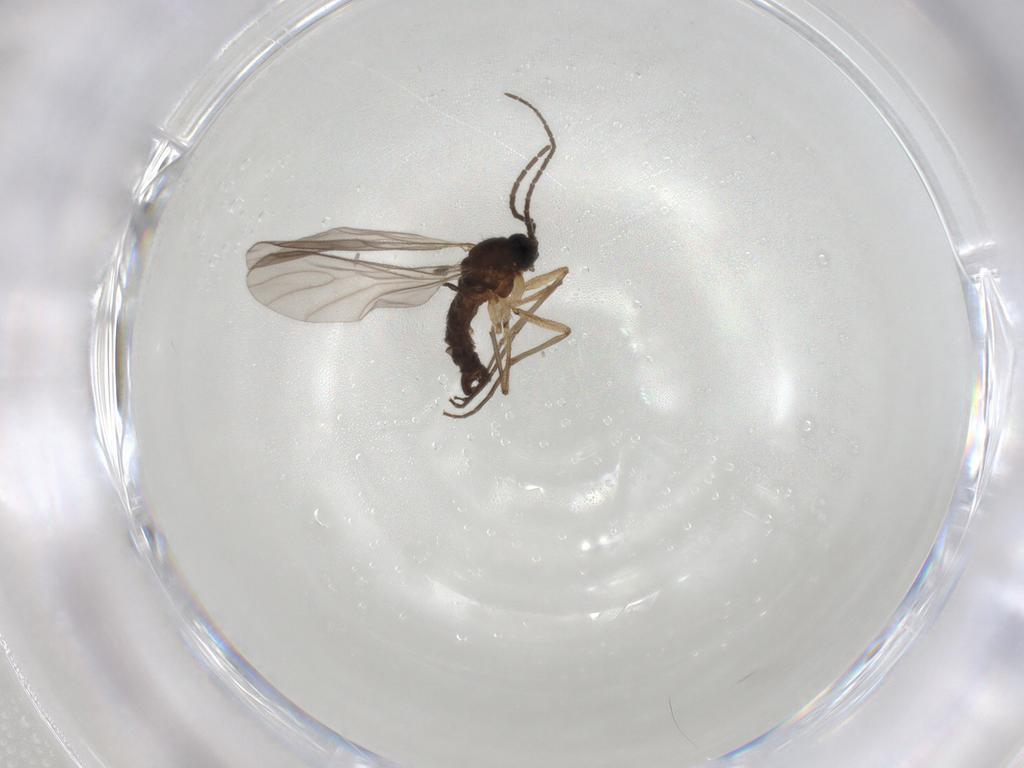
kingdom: Animalia
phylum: Arthropoda
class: Insecta
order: Diptera
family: Sciaridae
